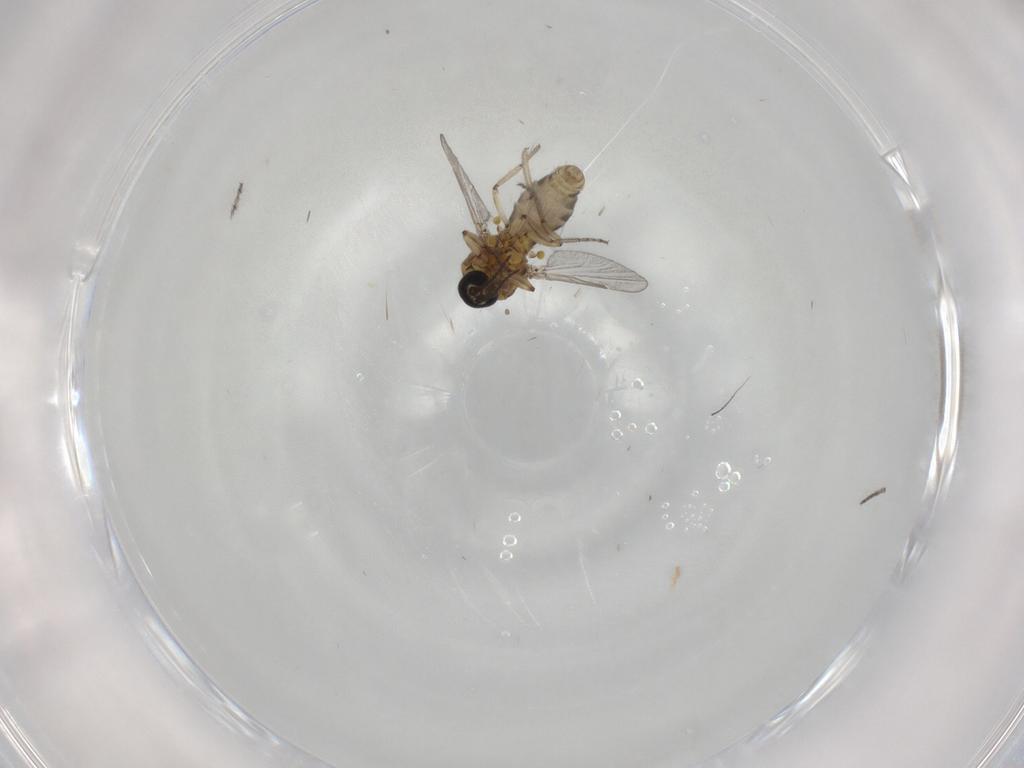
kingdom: Animalia
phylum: Arthropoda
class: Insecta
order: Diptera
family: Ceratopogonidae
